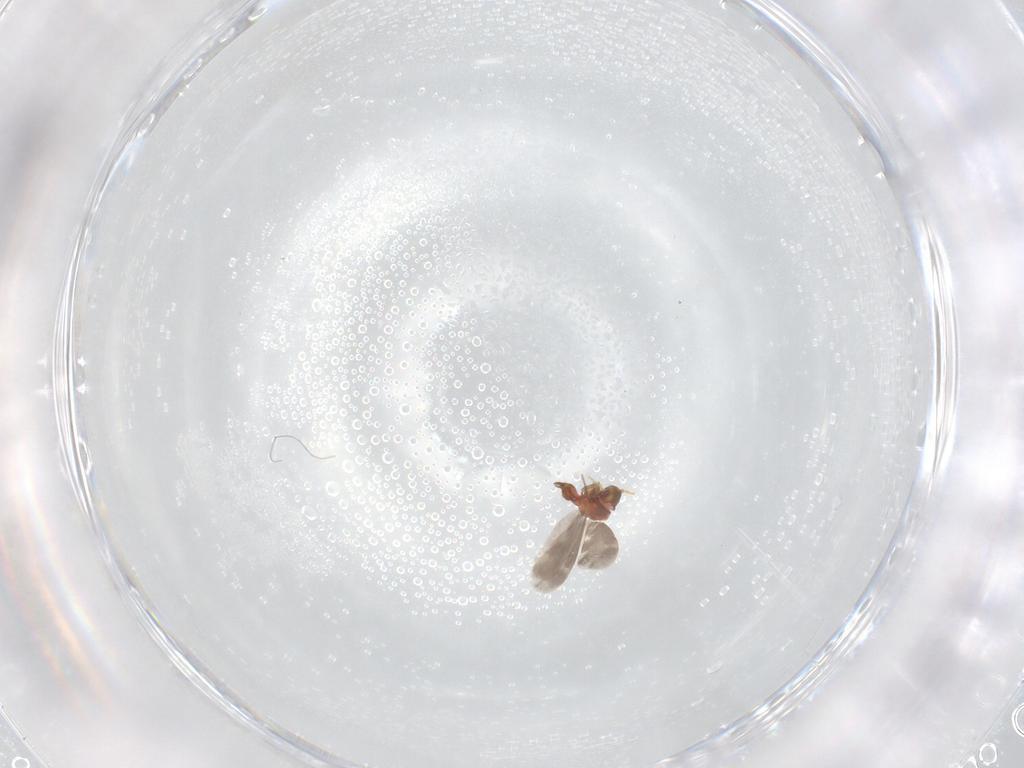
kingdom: Animalia
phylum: Arthropoda
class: Insecta
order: Hemiptera
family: Aleyrodidae
